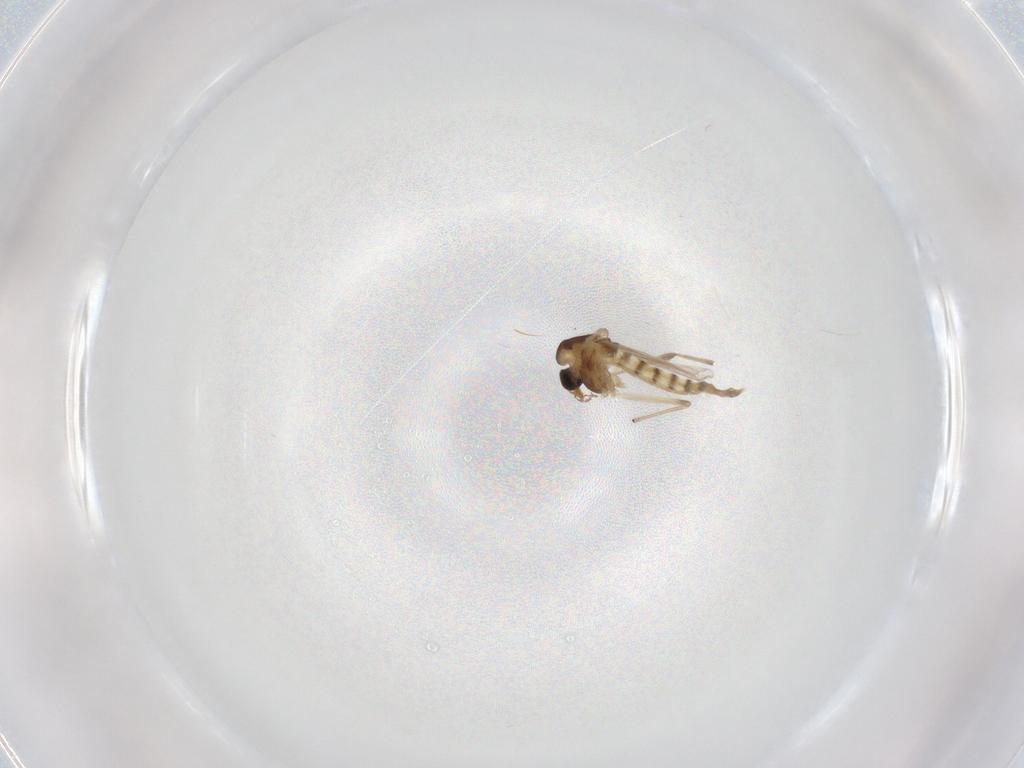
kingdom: Animalia
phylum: Arthropoda
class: Insecta
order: Diptera
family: Chironomidae
